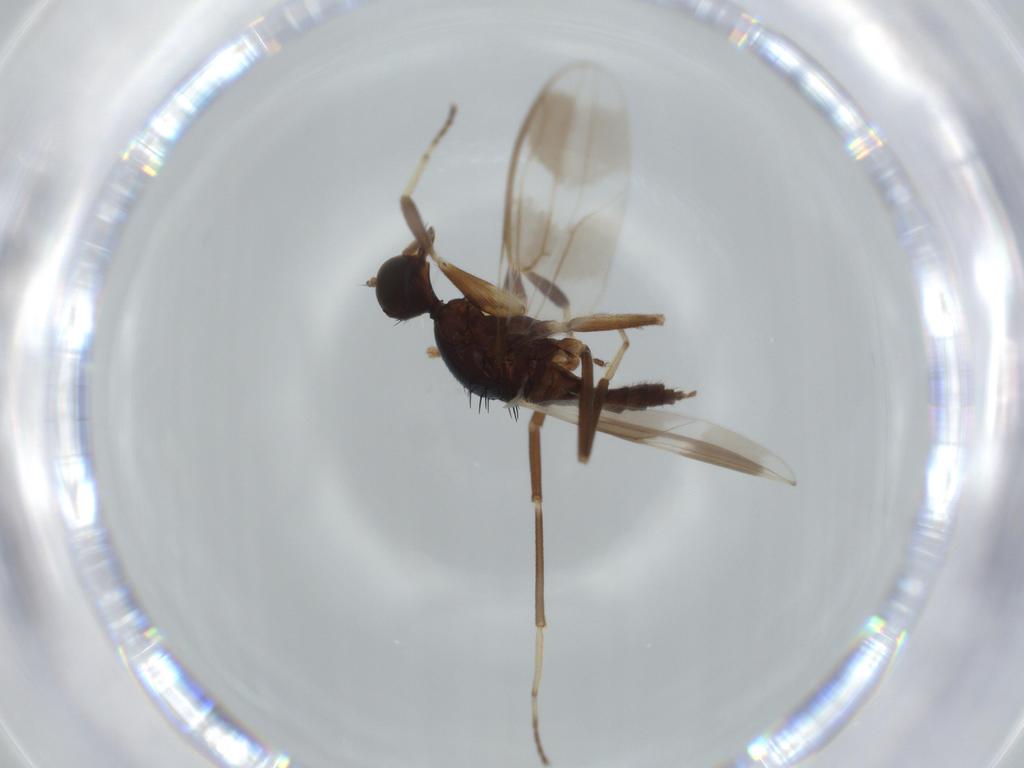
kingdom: Animalia
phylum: Arthropoda
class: Insecta
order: Diptera
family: Hybotidae
